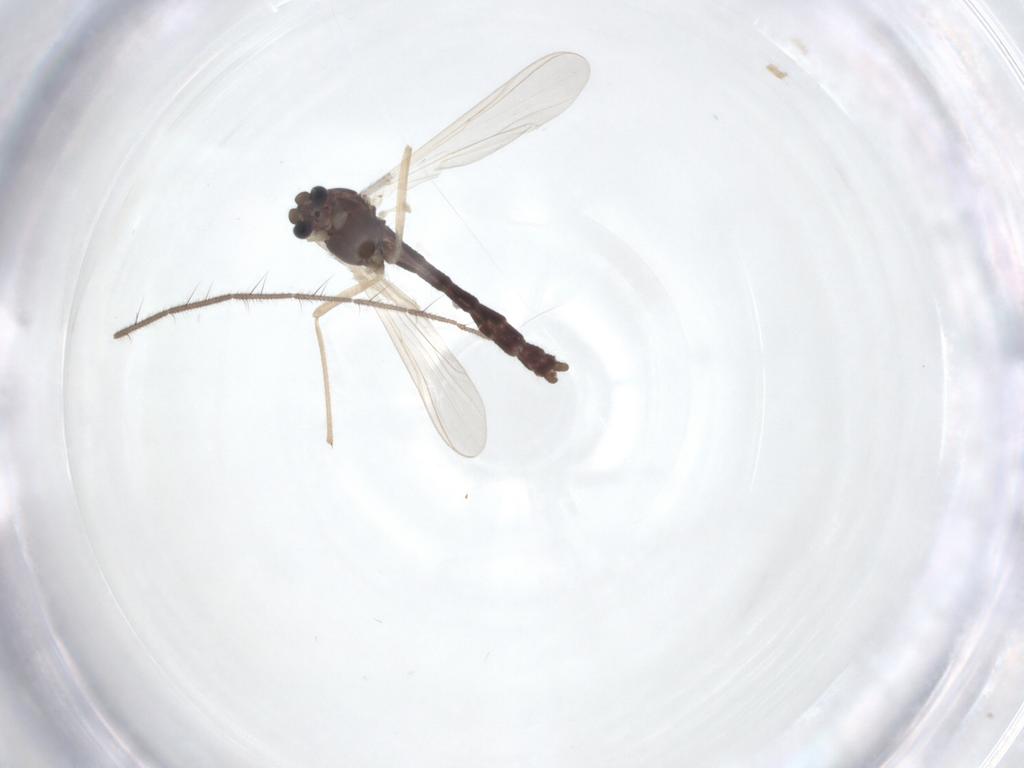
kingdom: Animalia
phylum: Arthropoda
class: Insecta
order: Diptera
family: Chironomidae
